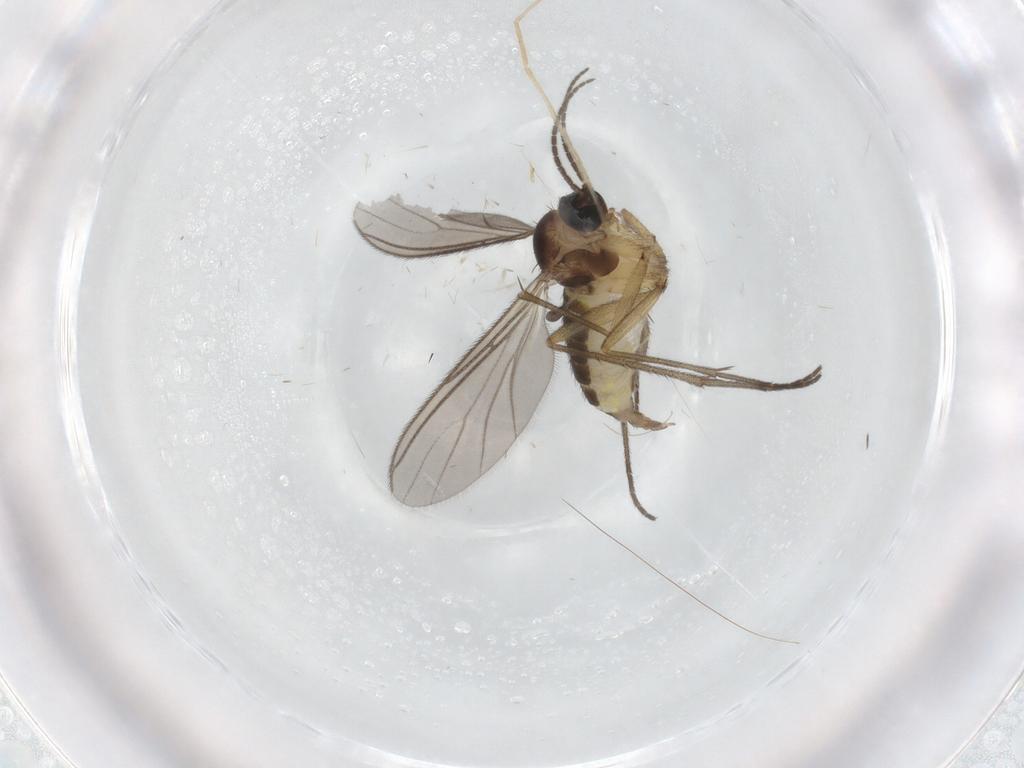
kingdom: Animalia
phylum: Arthropoda
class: Insecta
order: Diptera
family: Sciaridae
